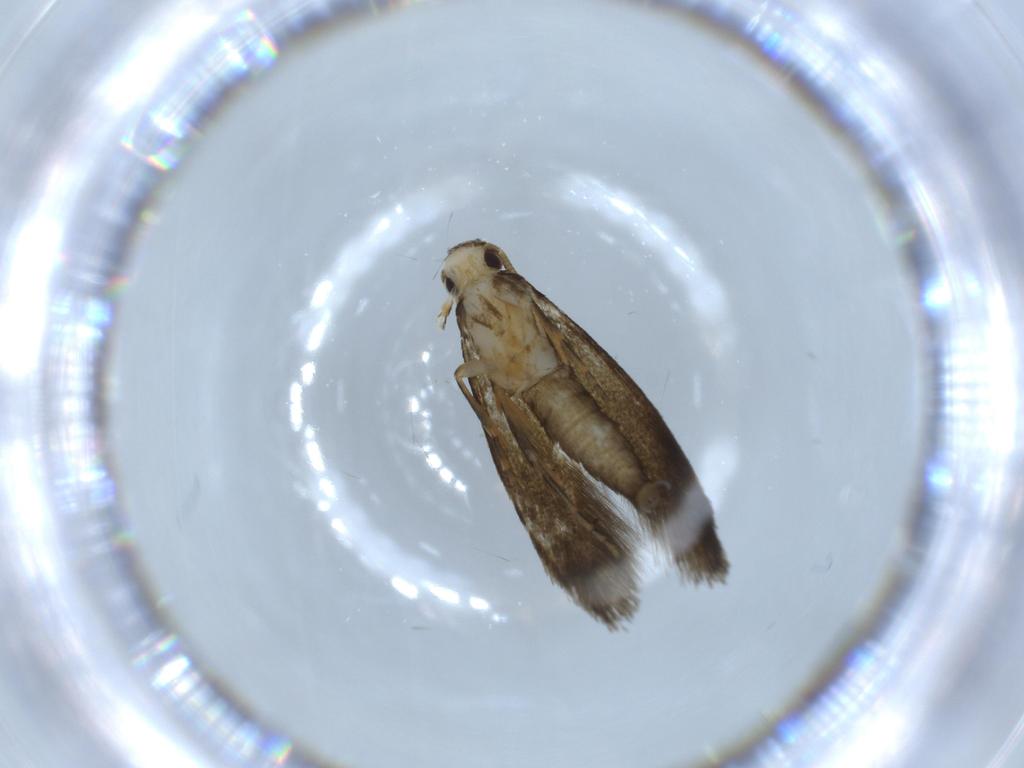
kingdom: Animalia
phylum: Arthropoda
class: Insecta
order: Lepidoptera
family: Tineidae
